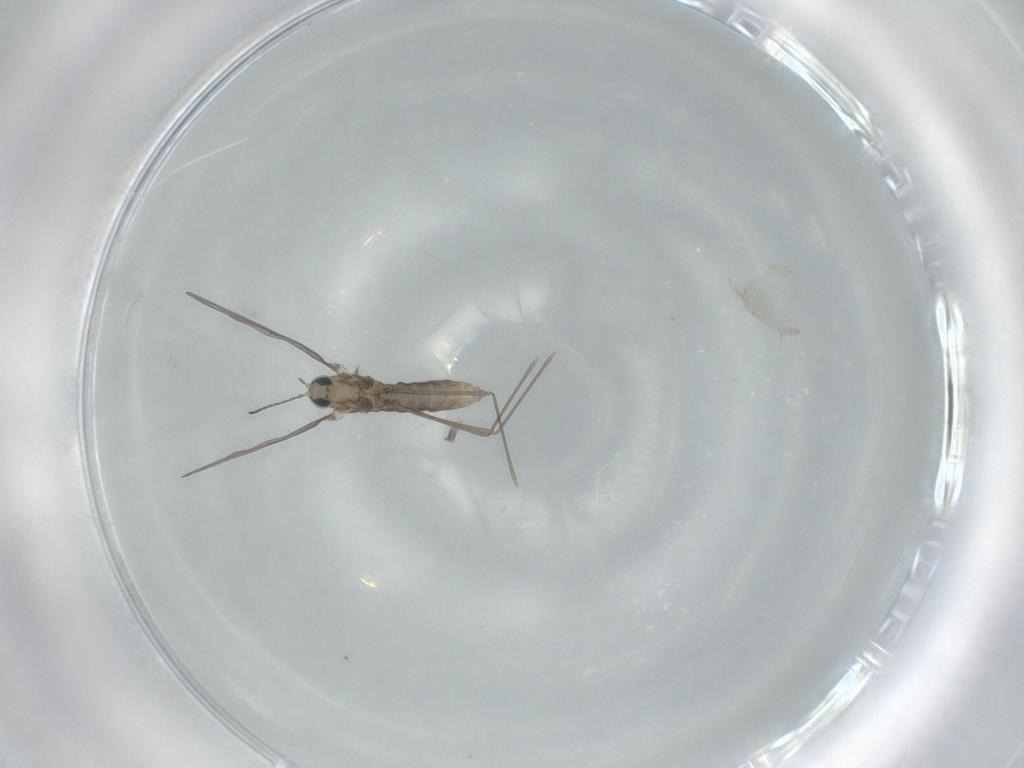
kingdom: Animalia
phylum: Arthropoda
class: Insecta
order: Diptera
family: Cecidomyiidae
